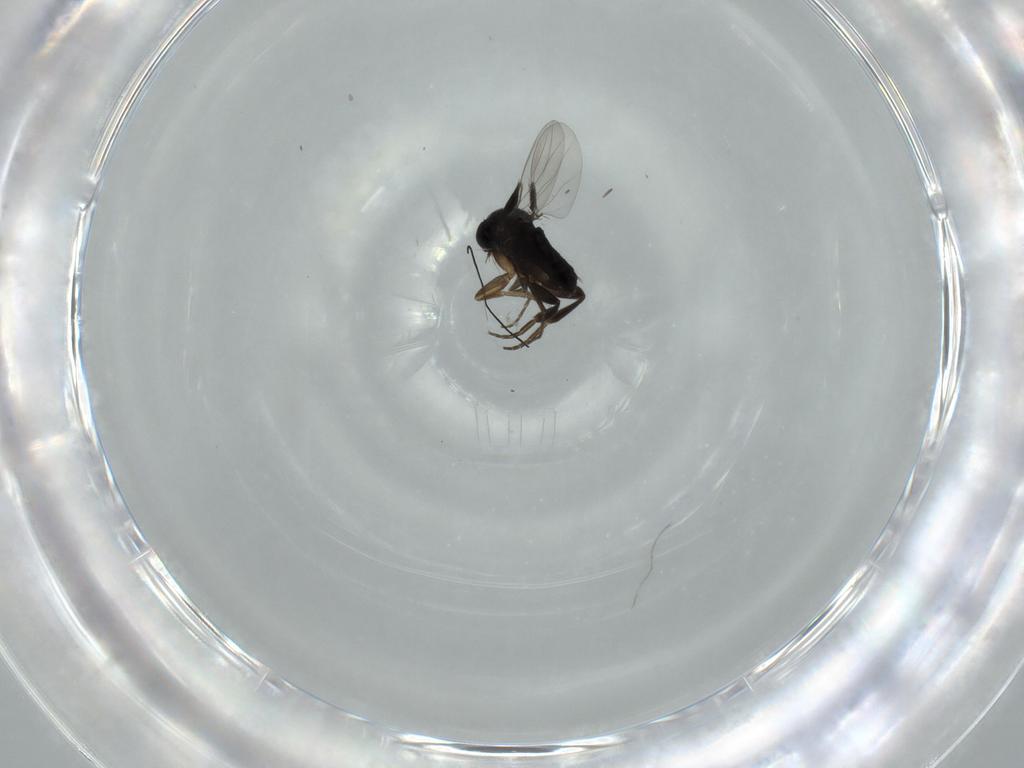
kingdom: Animalia
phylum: Arthropoda
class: Insecta
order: Diptera
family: Phoridae
